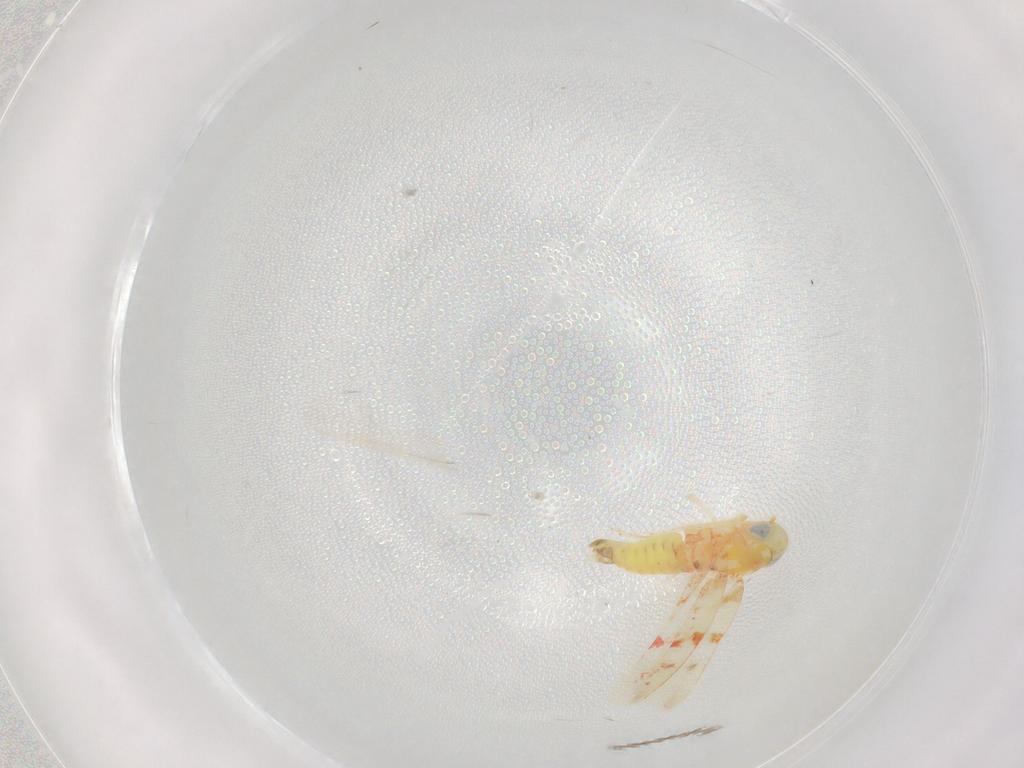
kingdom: Animalia
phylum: Arthropoda
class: Insecta
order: Hemiptera
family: Cicadellidae
